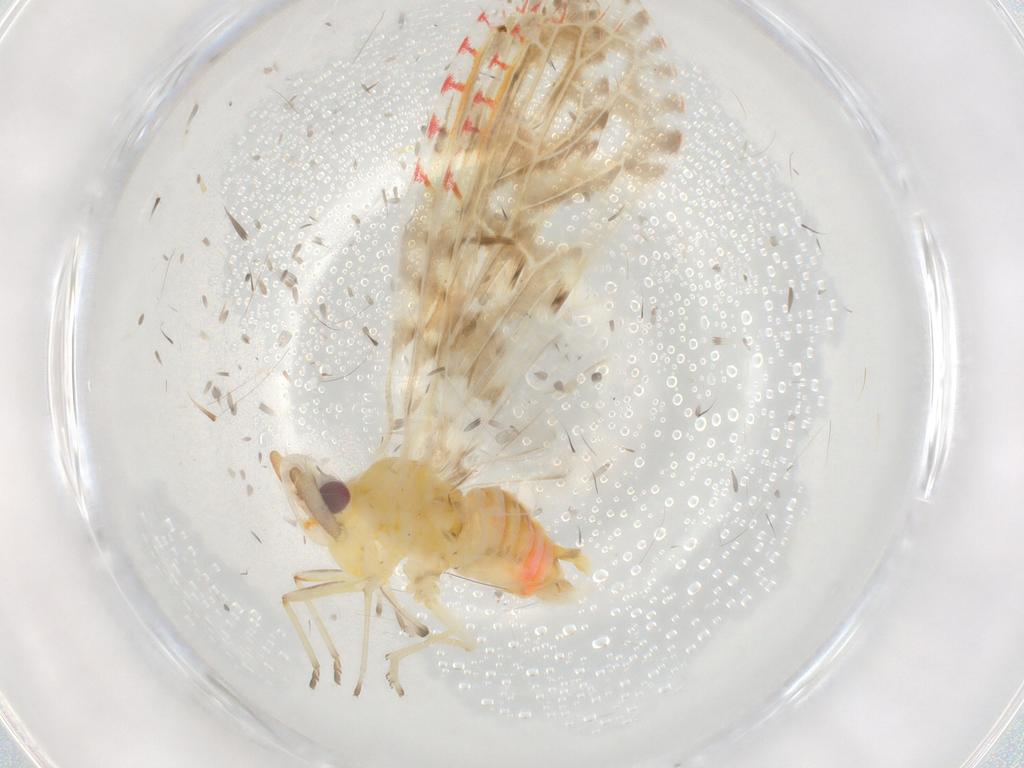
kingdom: Animalia
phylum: Arthropoda
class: Insecta
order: Hemiptera
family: Derbidae
